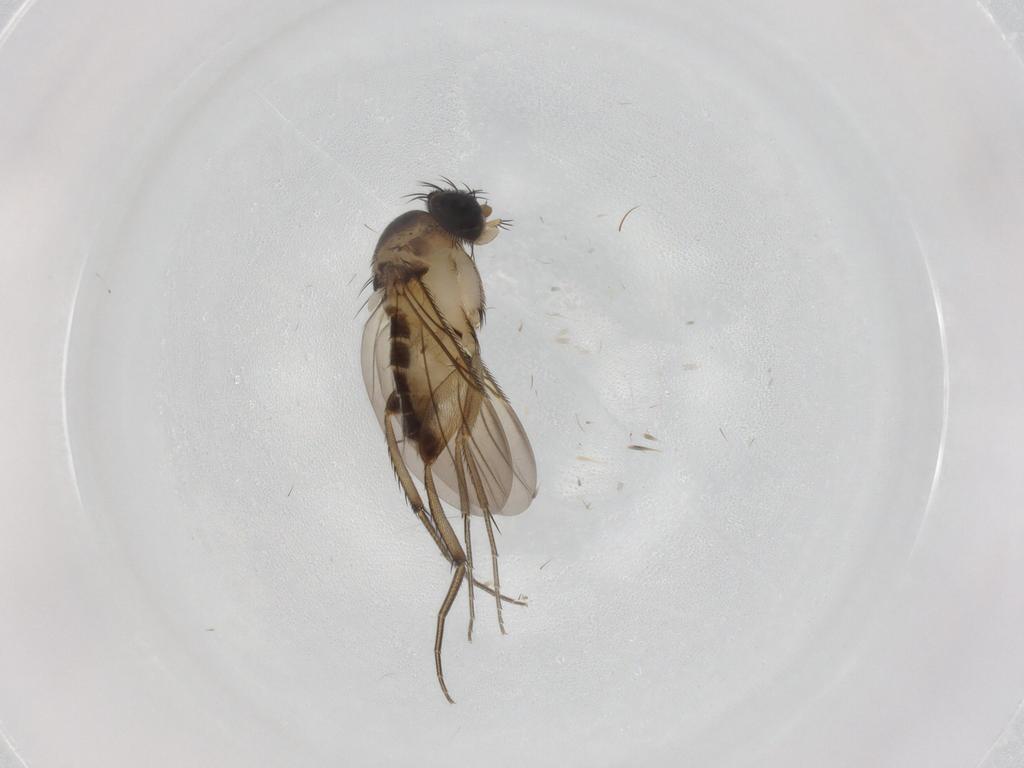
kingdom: Animalia
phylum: Arthropoda
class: Insecta
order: Diptera
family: Phoridae
